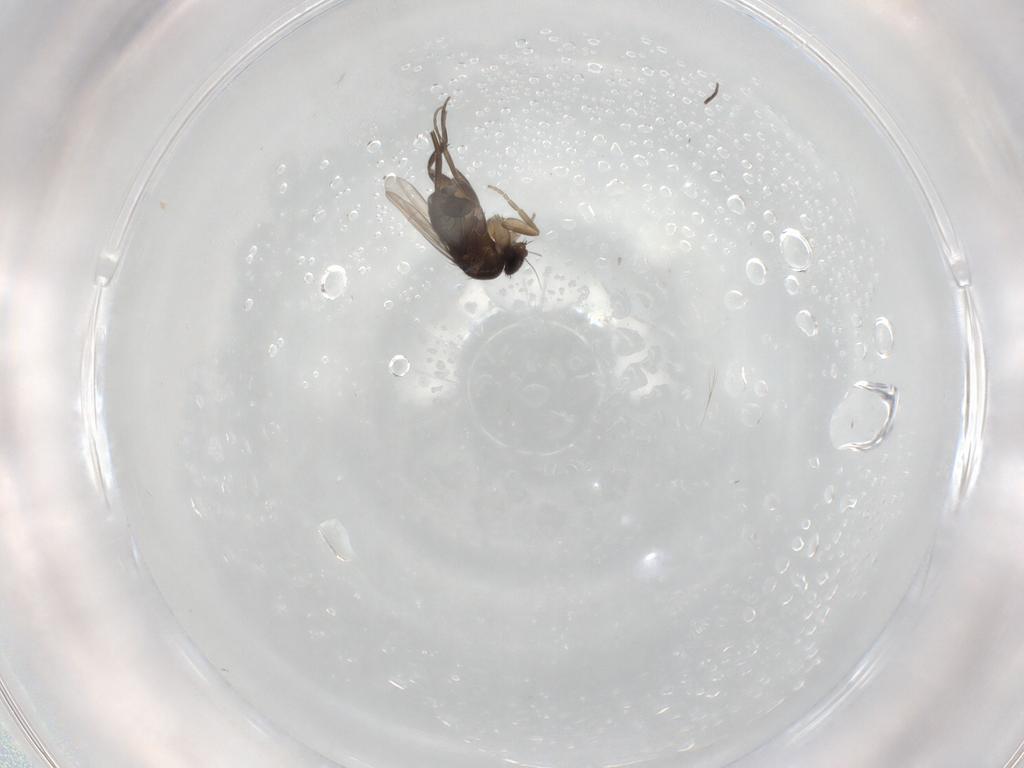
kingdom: Animalia
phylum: Arthropoda
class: Insecta
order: Diptera
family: Phoridae
